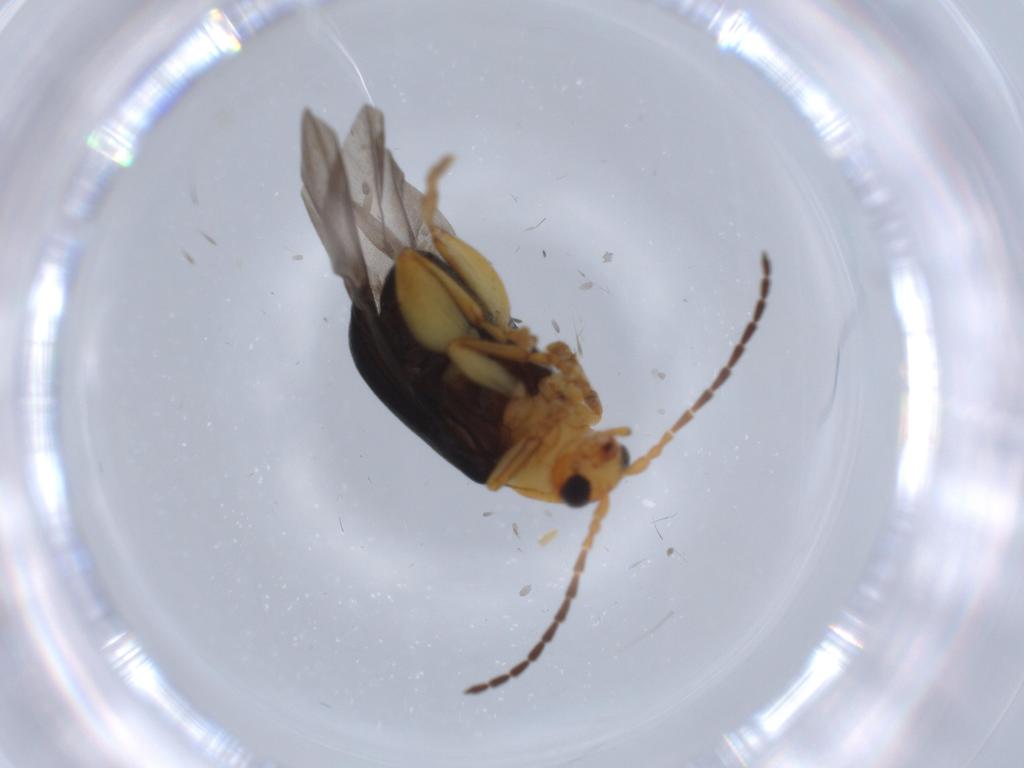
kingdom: Animalia
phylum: Arthropoda
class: Insecta
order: Coleoptera
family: Chrysomelidae
